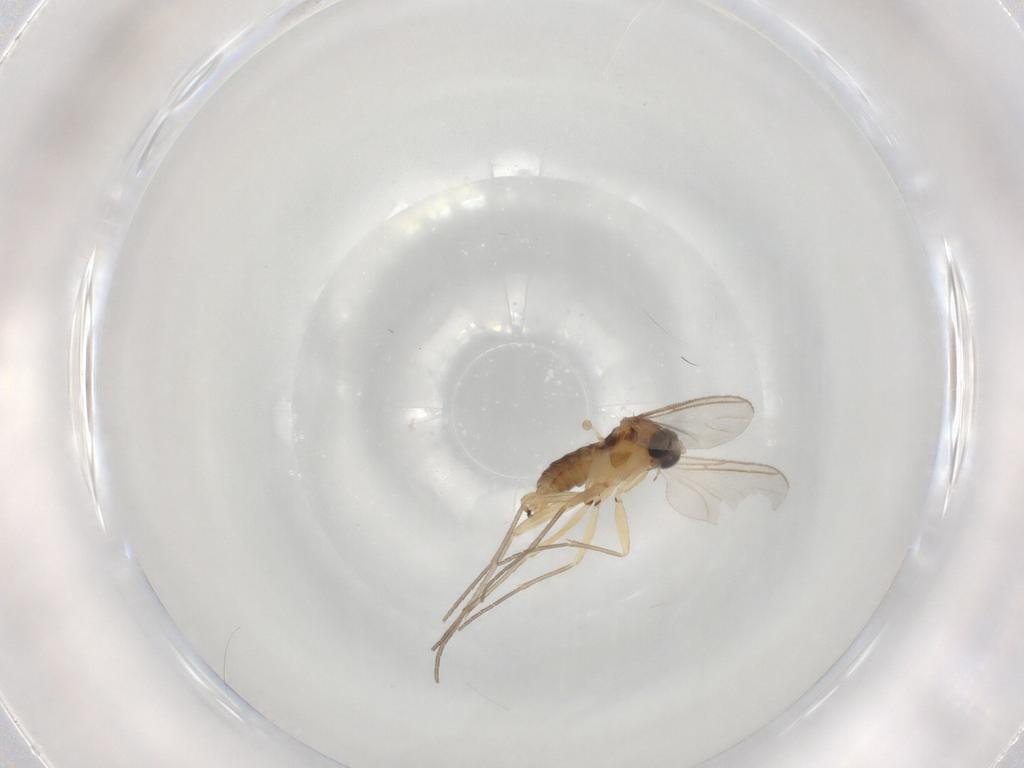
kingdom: Animalia
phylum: Arthropoda
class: Insecta
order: Diptera
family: Sciaridae
